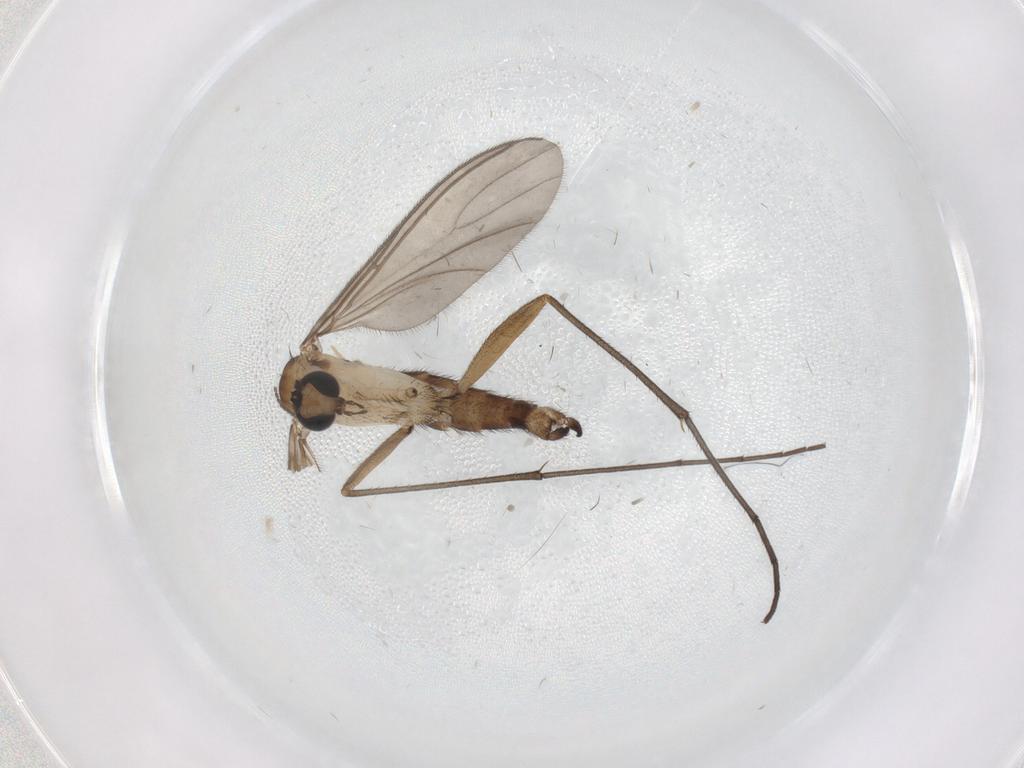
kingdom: Animalia
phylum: Arthropoda
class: Insecta
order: Diptera
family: Sciaridae
